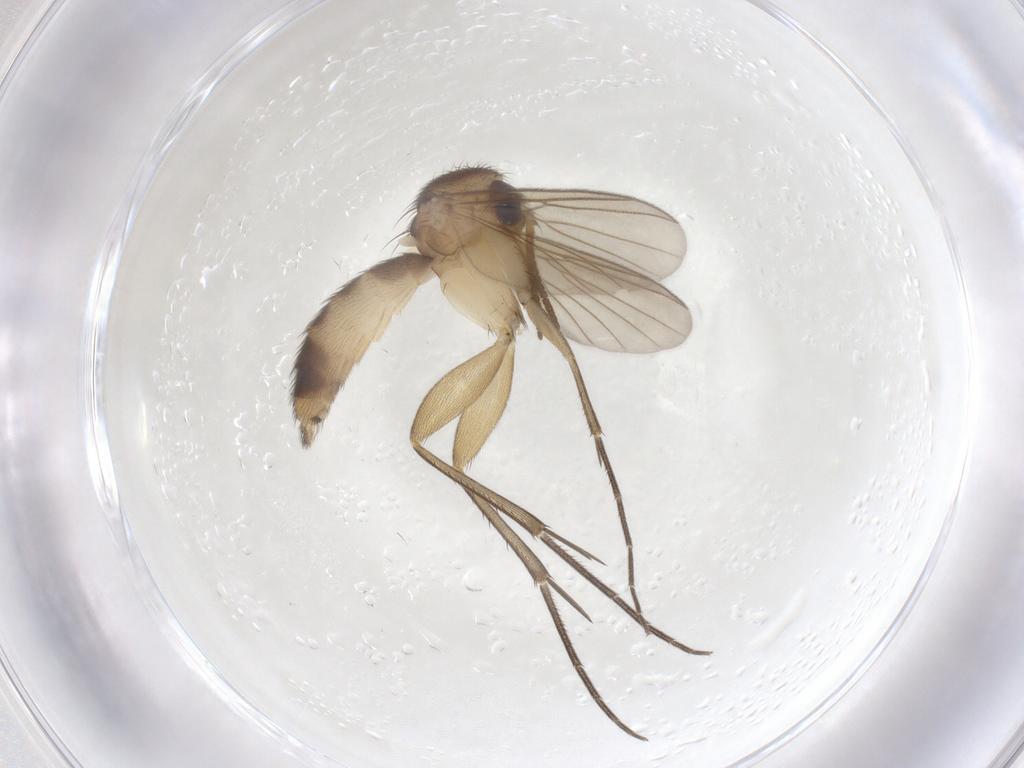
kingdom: Animalia
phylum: Arthropoda
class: Insecta
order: Diptera
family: Mycetophilidae
